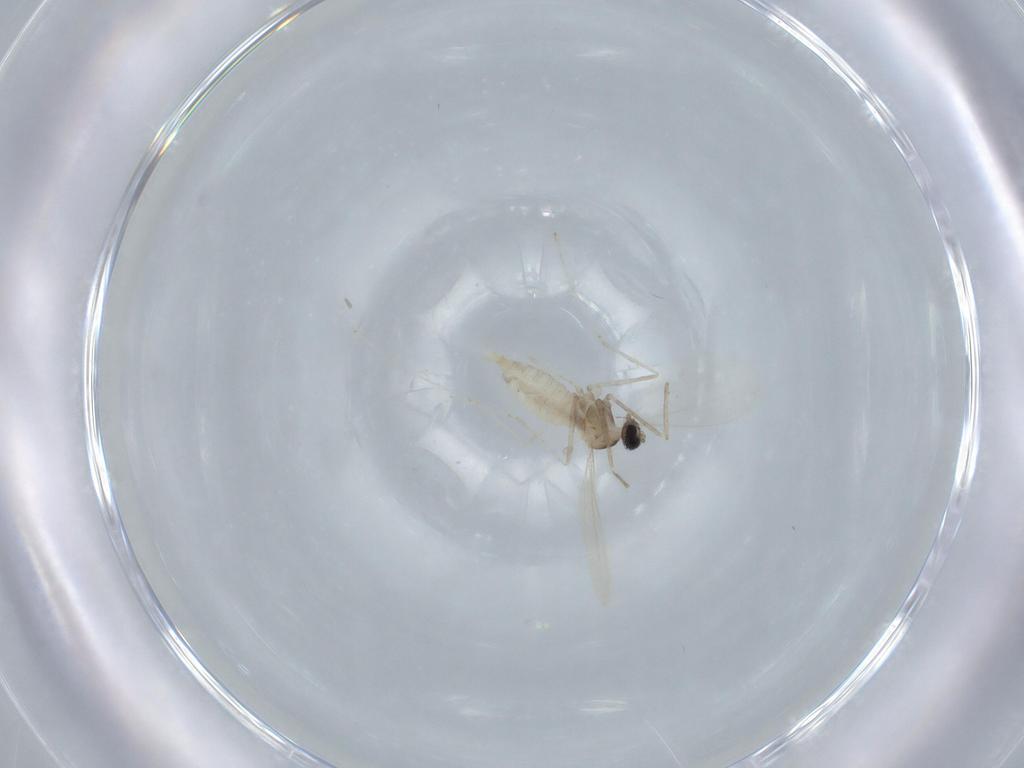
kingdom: Animalia
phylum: Arthropoda
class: Insecta
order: Diptera
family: Cecidomyiidae
